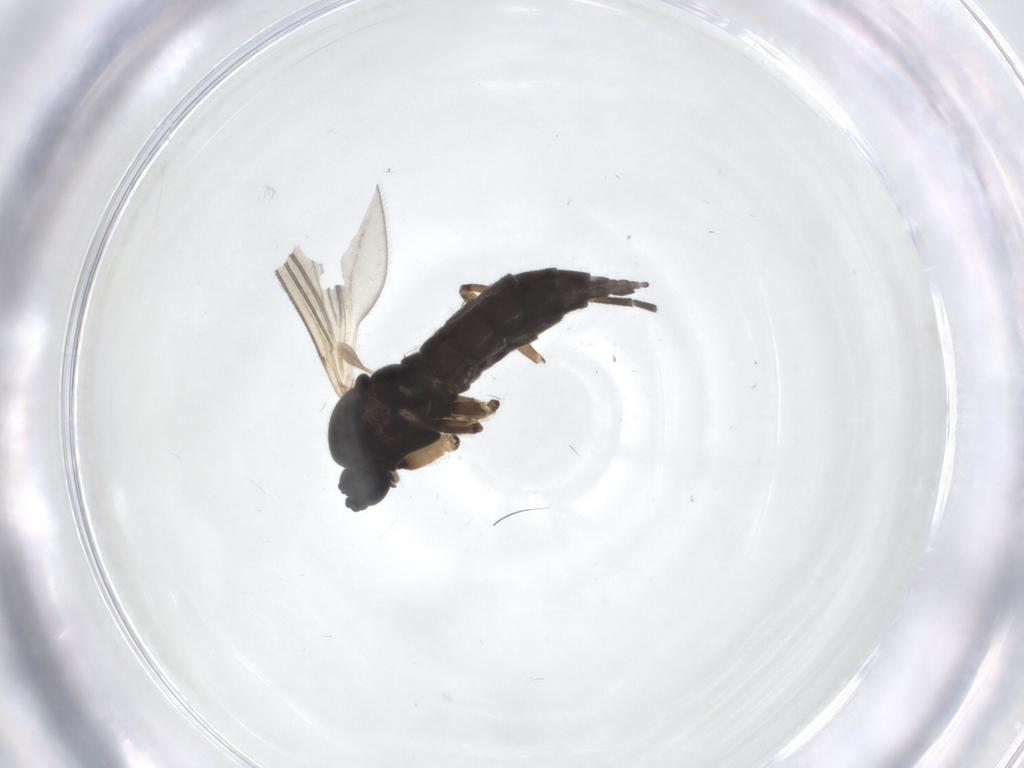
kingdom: Animalia
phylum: Arthropoda
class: Insecta
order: Diptera
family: Sciaridae
